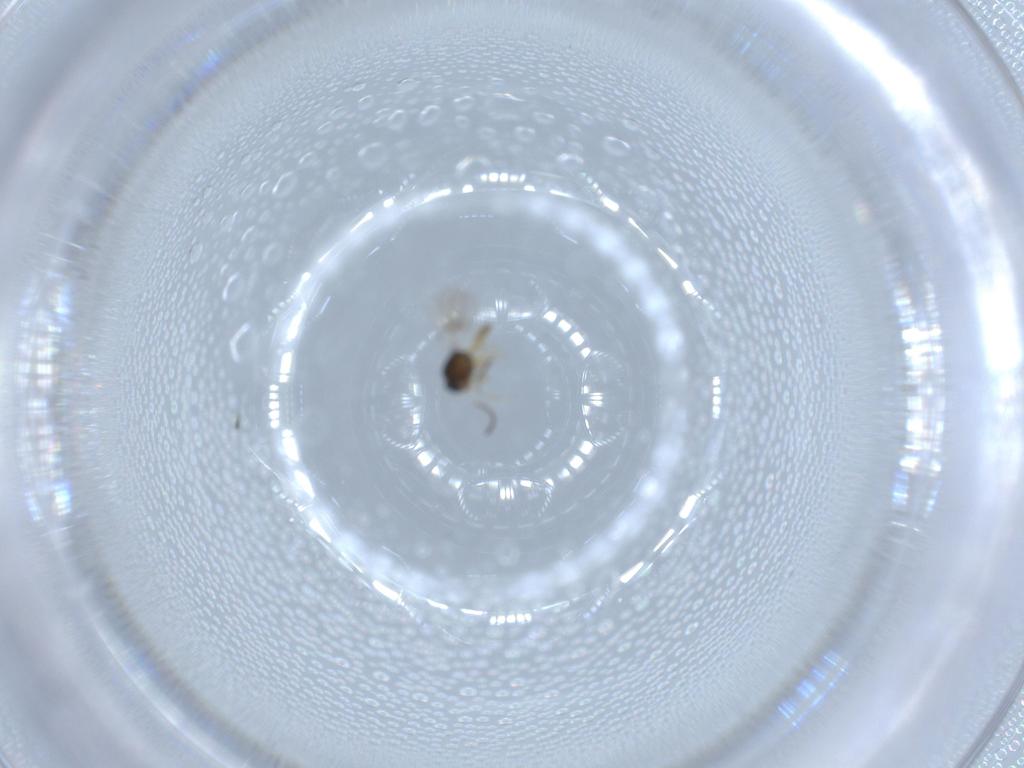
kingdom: Animalia
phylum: Arthropoda
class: Insecta
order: Hymenoptera
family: Scelionidae
